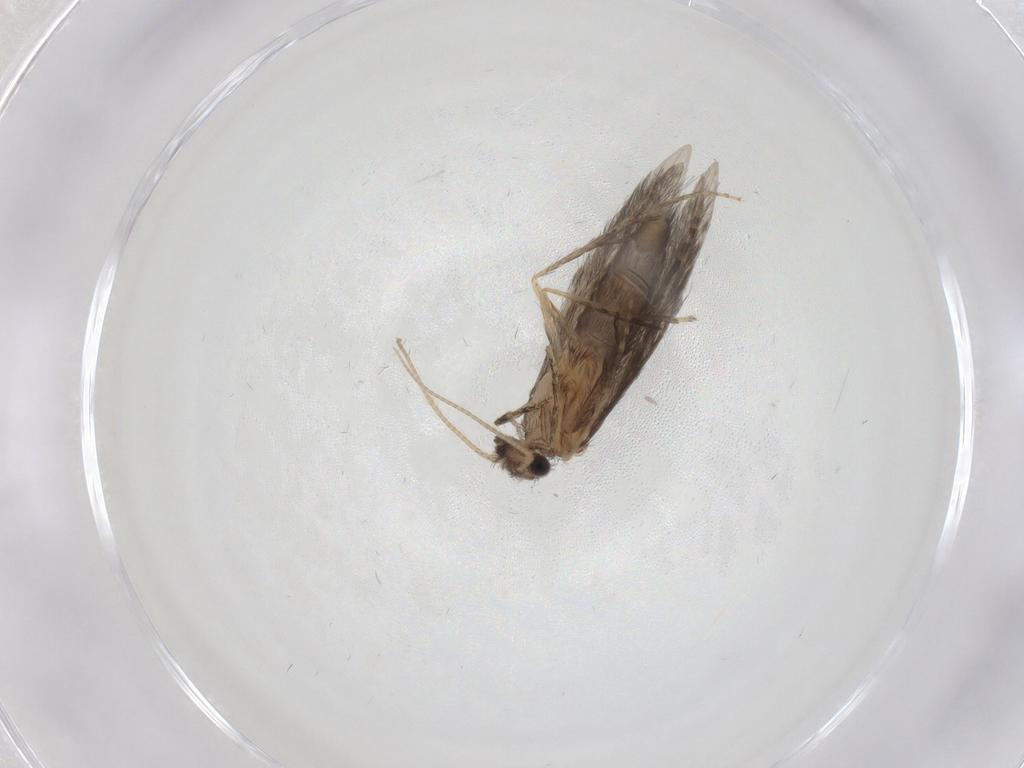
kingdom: Animalia
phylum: Arthropoda
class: Insecta
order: Trichoptera
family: Hydroptilidae
